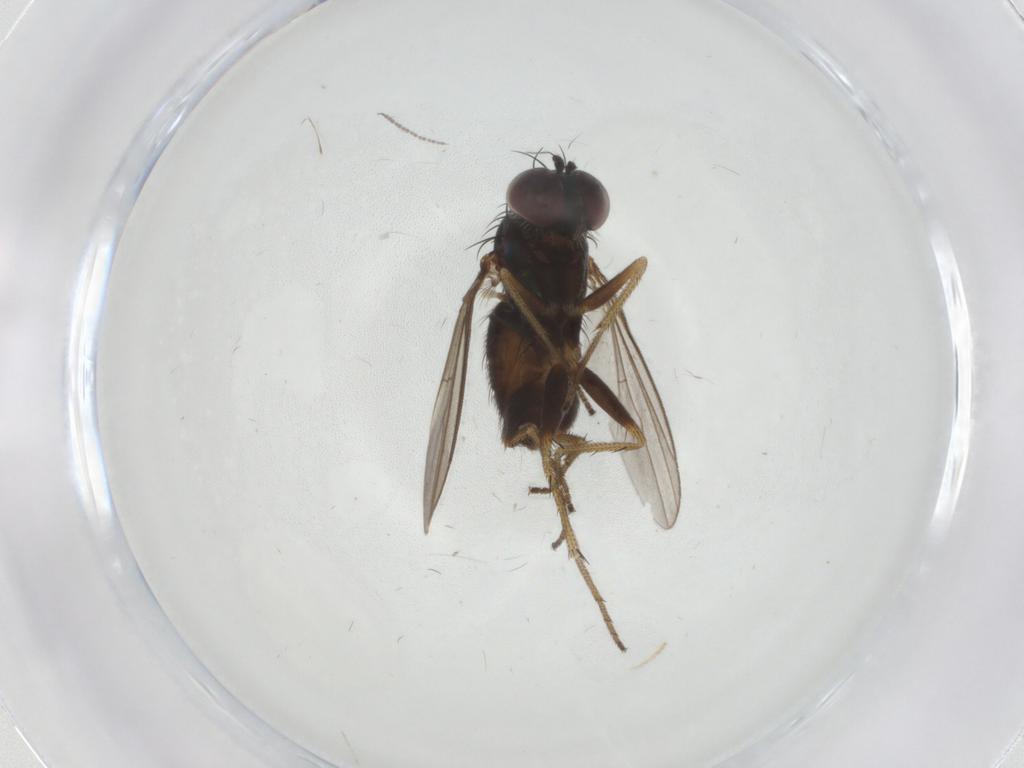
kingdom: Animalia
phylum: Arthropoda
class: Insecta
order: Diptera
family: Dolichopodidae
